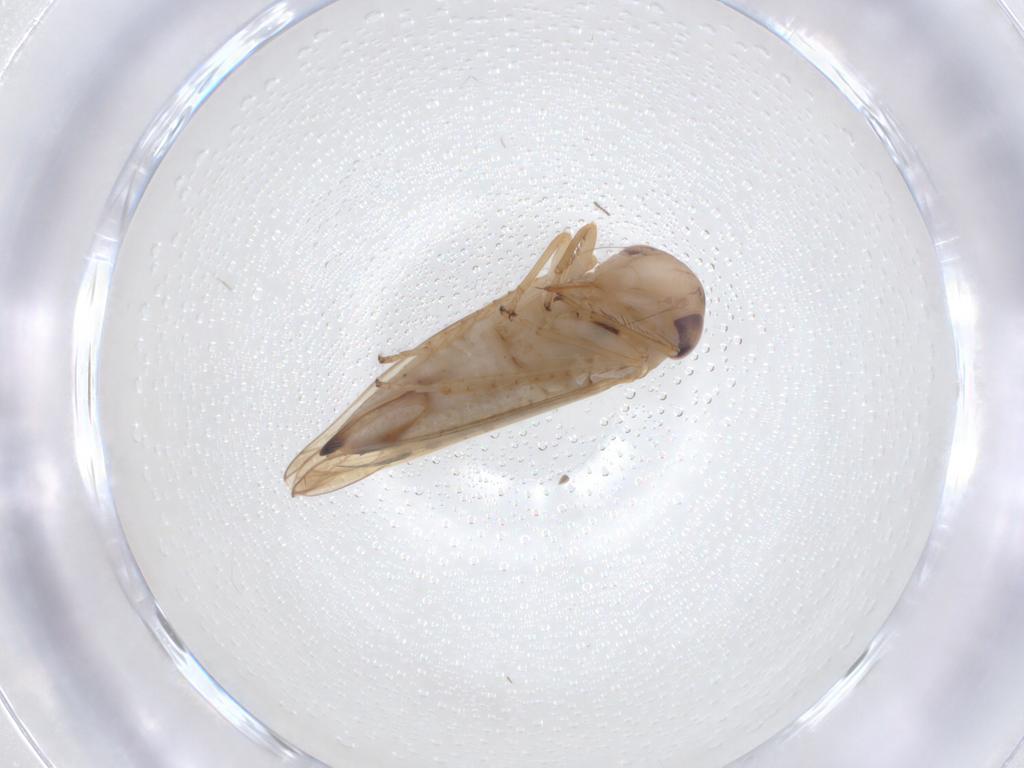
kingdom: Animalia
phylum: Arthropoda
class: Insecta
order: Hemiptera
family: Cicadellidae
